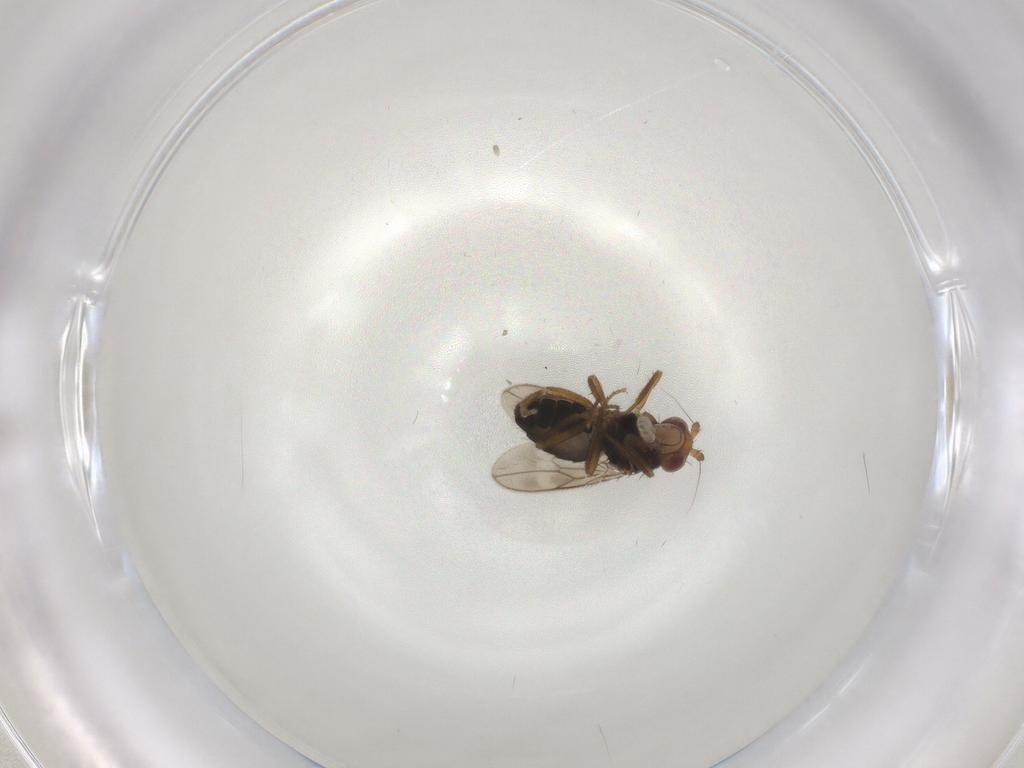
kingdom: Animalia
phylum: Arthropoda
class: Insecta
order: Diptera
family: Sphaeroceridae
